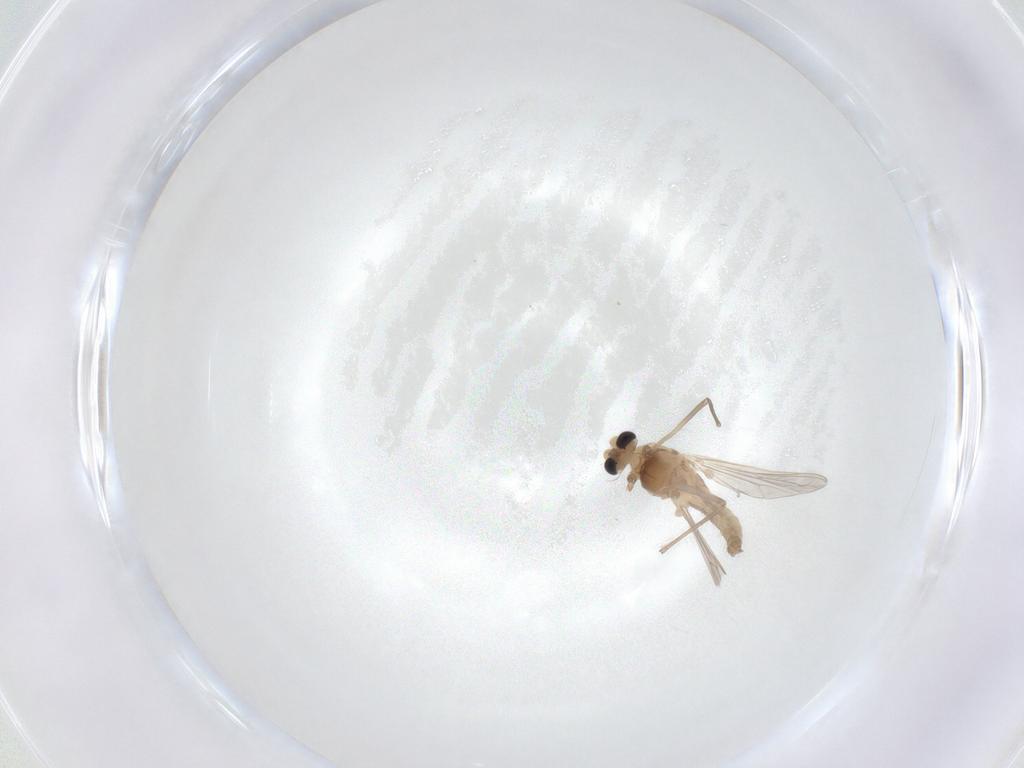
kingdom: Animalia
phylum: Arthropoda
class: Insecta
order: Diptera
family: Chironomidae
